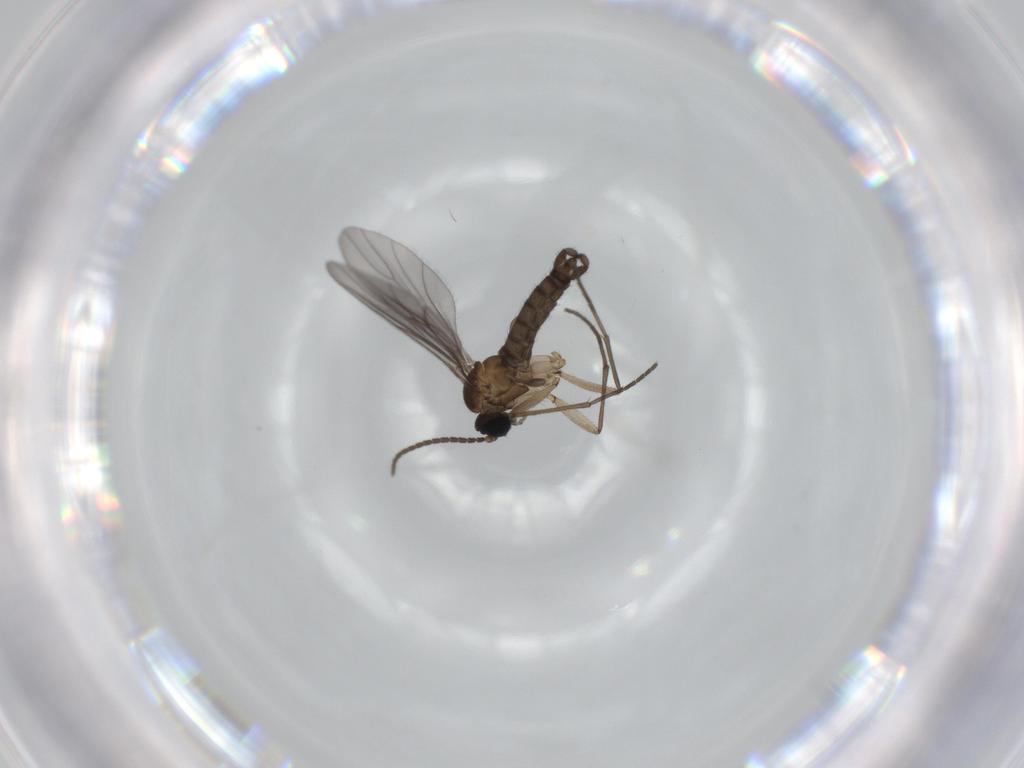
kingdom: Animalia
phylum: Arthropoda
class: Insecta
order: Diptera
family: Sciaridae
